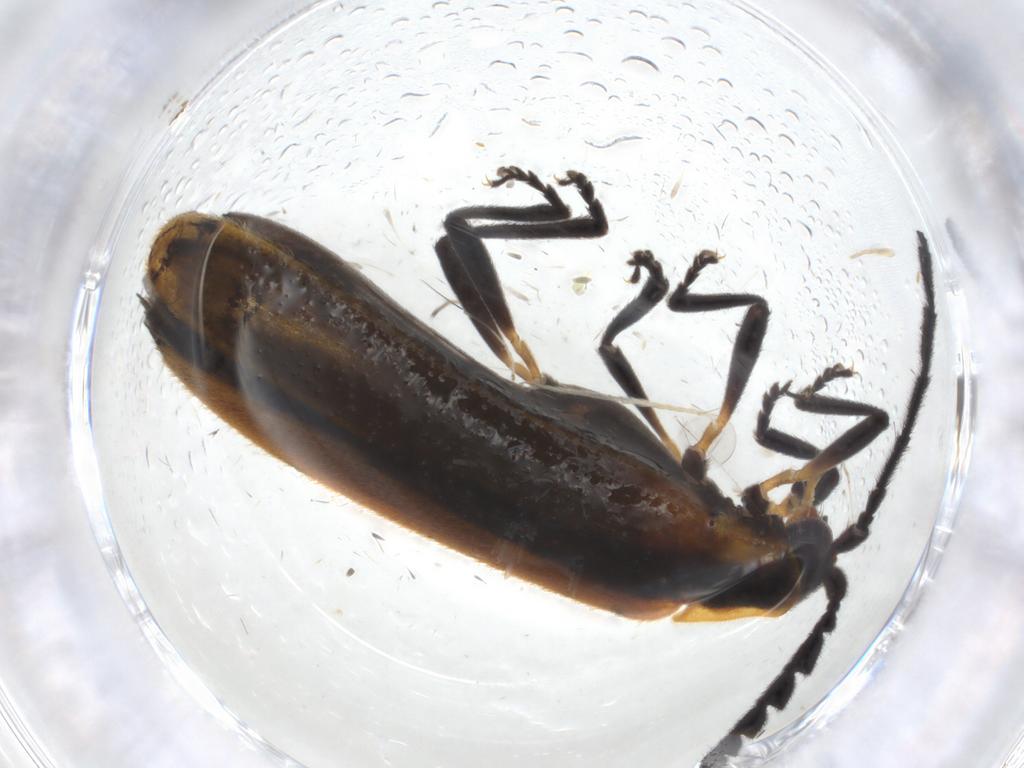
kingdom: Animalia
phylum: Arthropoda
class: Insecta
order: Coleoptera
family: Lycidae
